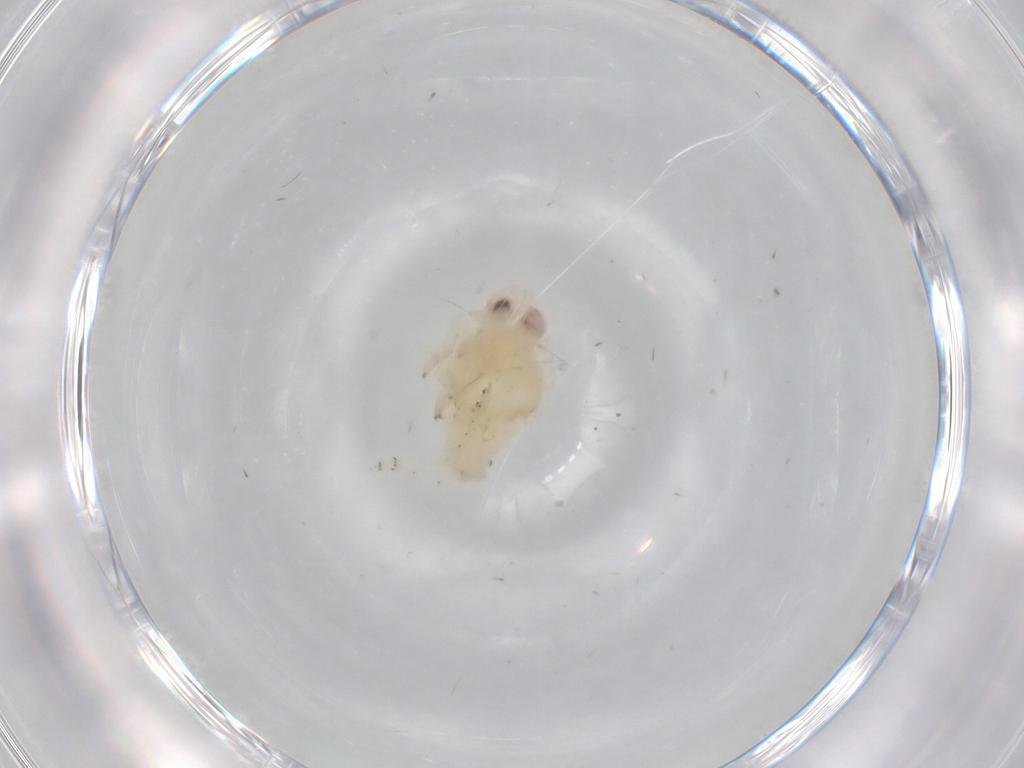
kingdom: Animalia
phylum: Arthropoda
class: Insecta
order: Hemiptera
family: Nogodinidae
